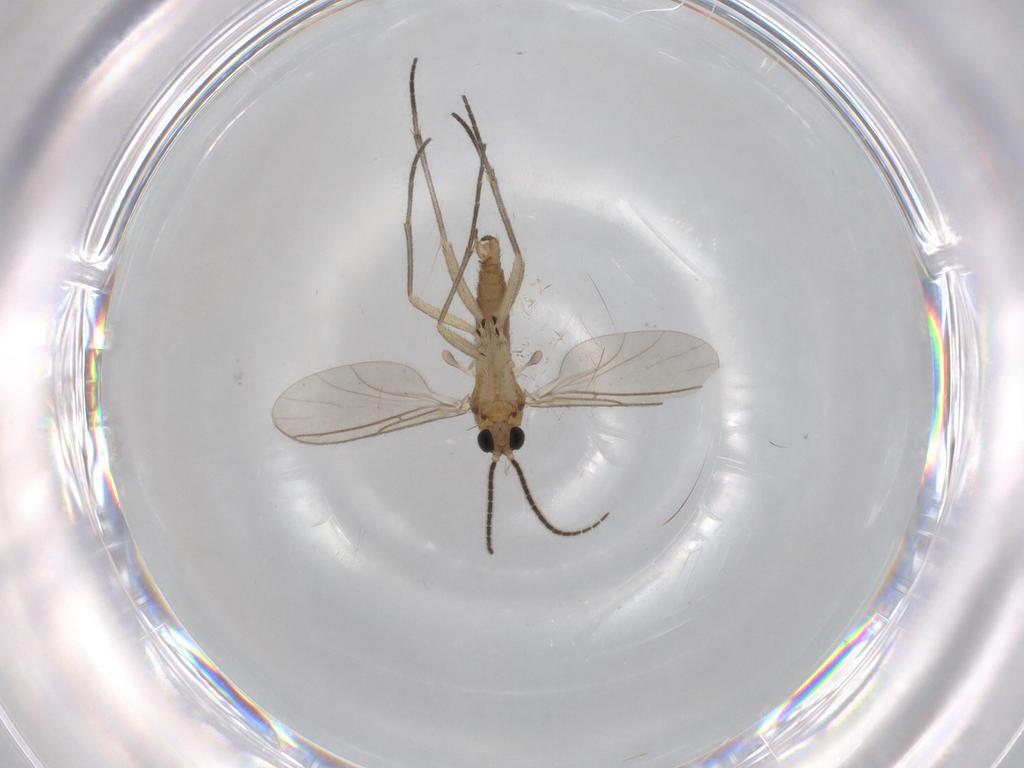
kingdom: Animalia
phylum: Arthropoda
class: Insecta
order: Diptera
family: Sciaridae
